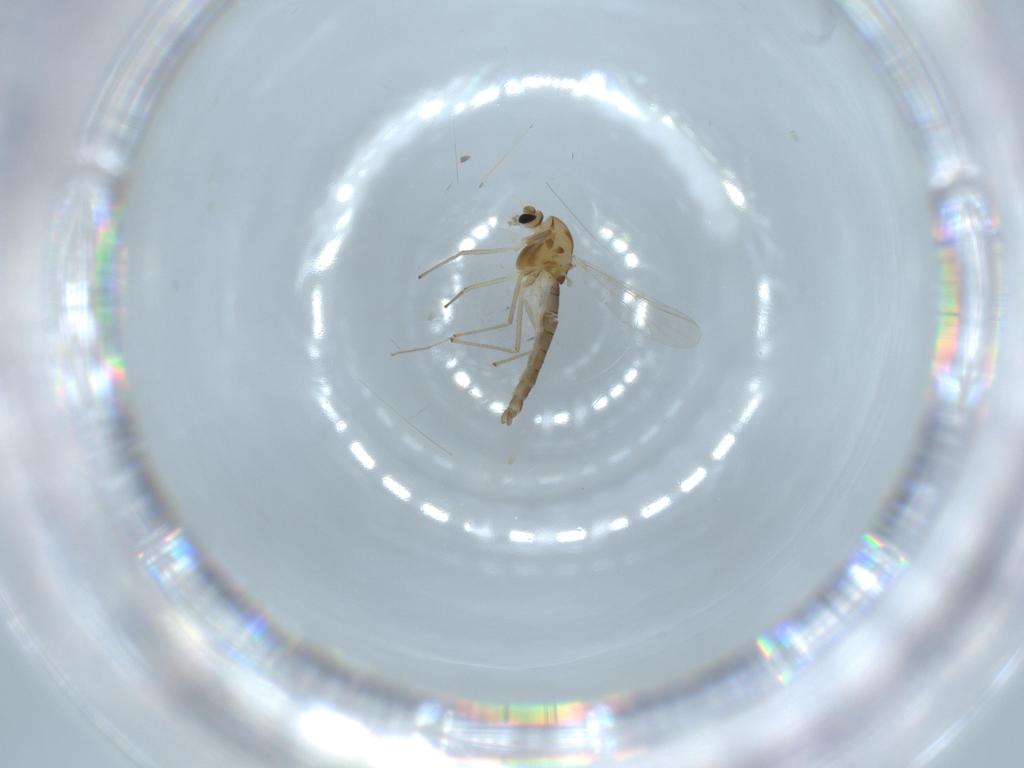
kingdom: Animalia
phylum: Arthropoda
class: Insecta
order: Diptera
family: Chironomidae
